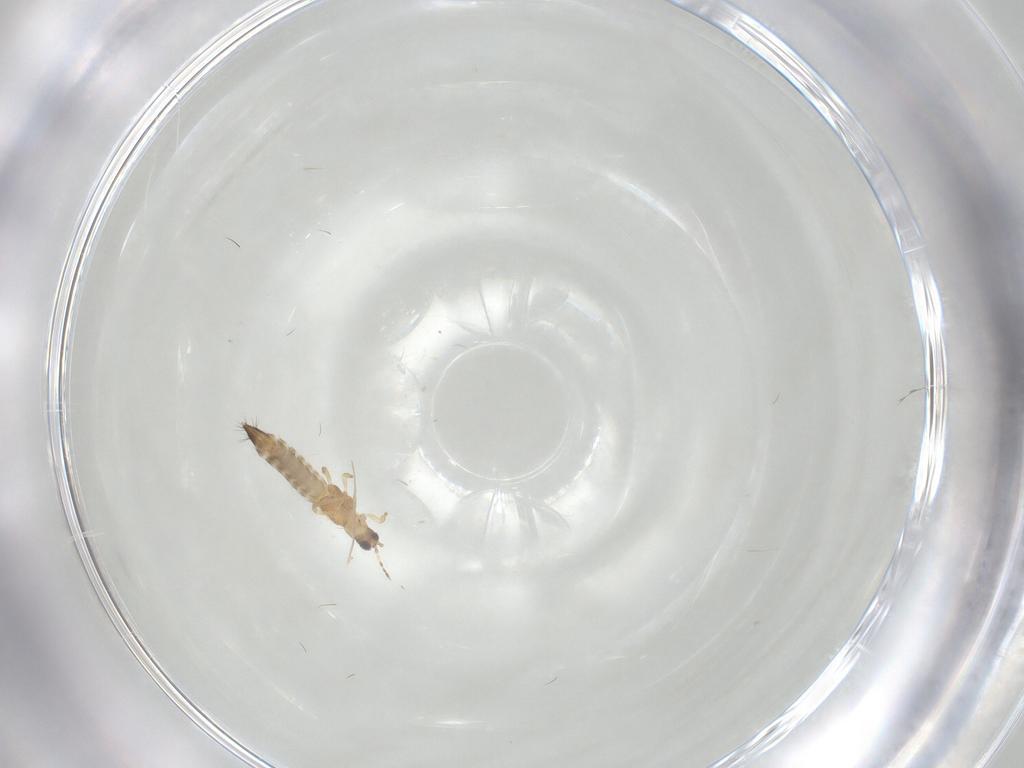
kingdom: Animalia
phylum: Arthropoda
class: Insecta
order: Thysanoptera
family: Thripidae
